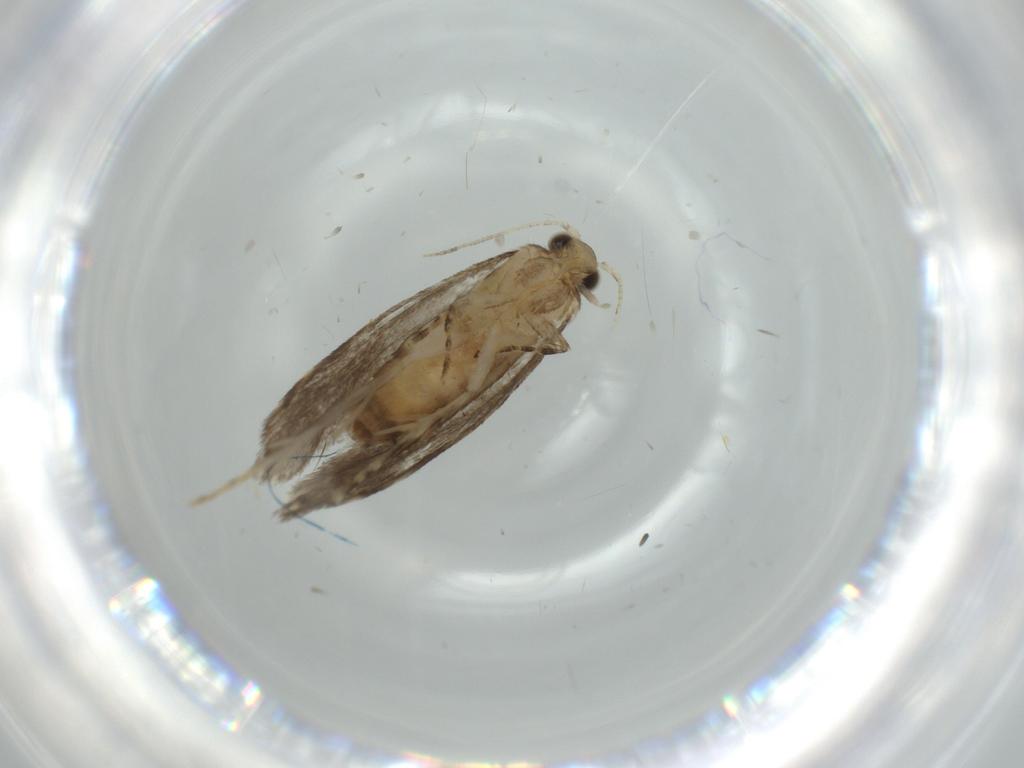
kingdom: Animalia
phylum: Arthropoda
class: Insecta
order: Lepidoptera
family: Tineidae
